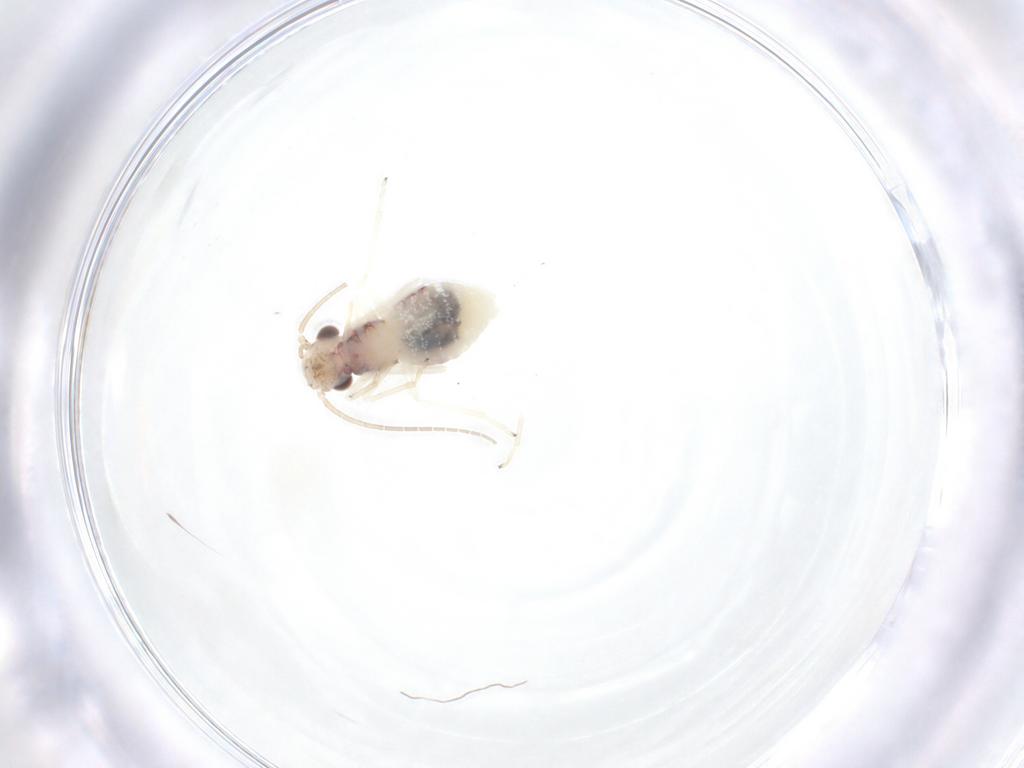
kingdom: Animalia
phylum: Arthropoda
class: Insecta
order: Psocodea
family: Caeciliusidae
